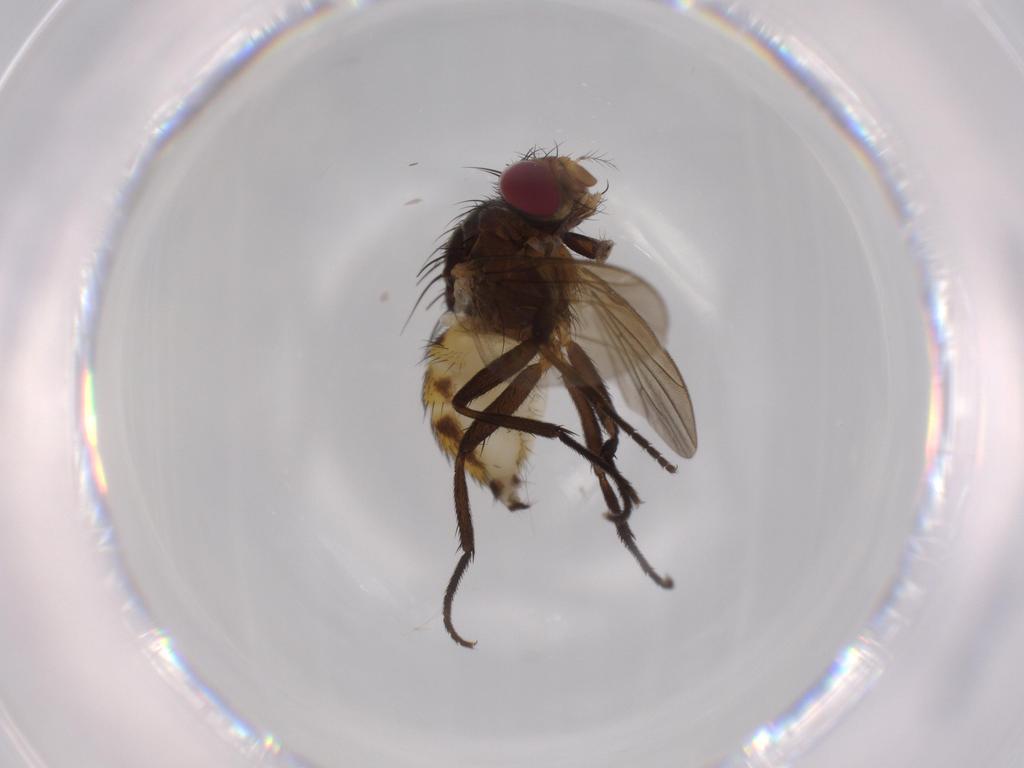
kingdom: Animalia
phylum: Arthropoda
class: Insecta
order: Diptera
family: Anthomyiidae
